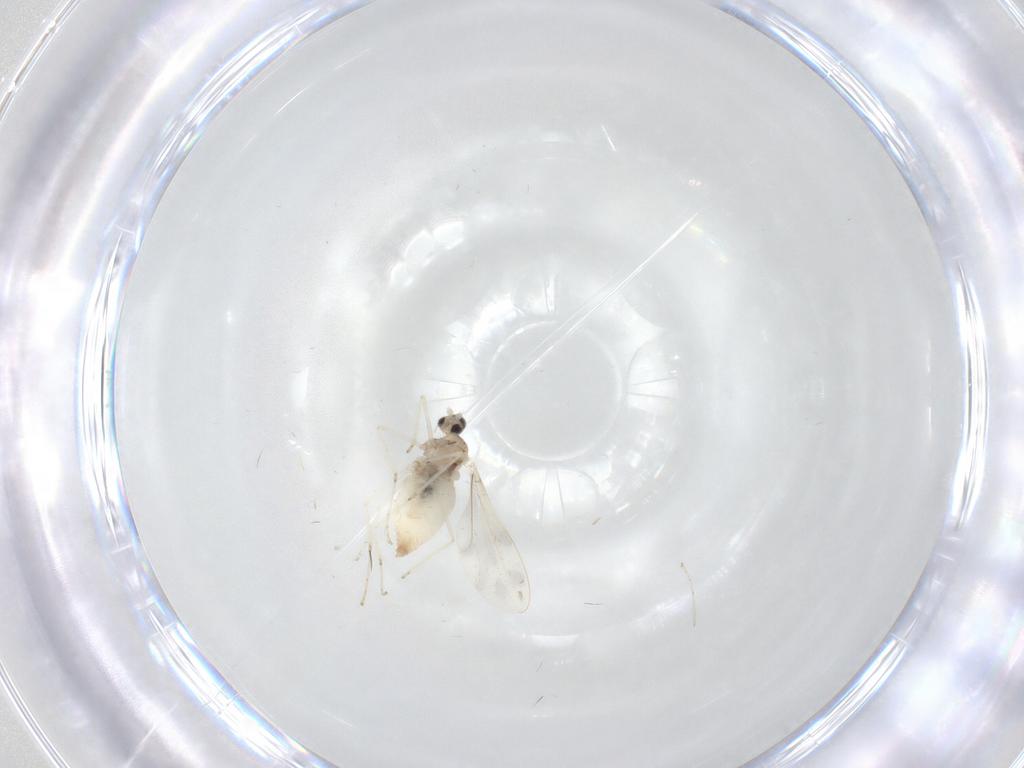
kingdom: Animalia
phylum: Arthropoda
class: Insecta
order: Diptera
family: Cecidomyiidae
